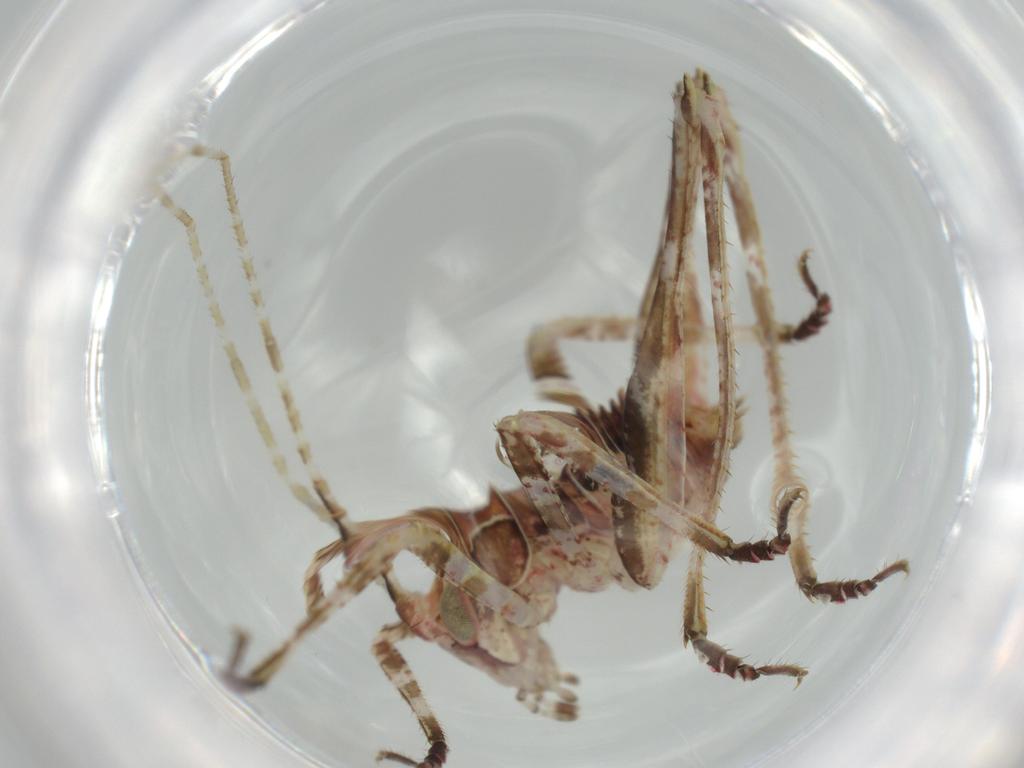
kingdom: Animalia
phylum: Arthropoda
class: Insecta
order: Orthoptera
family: Tettigoniidae
